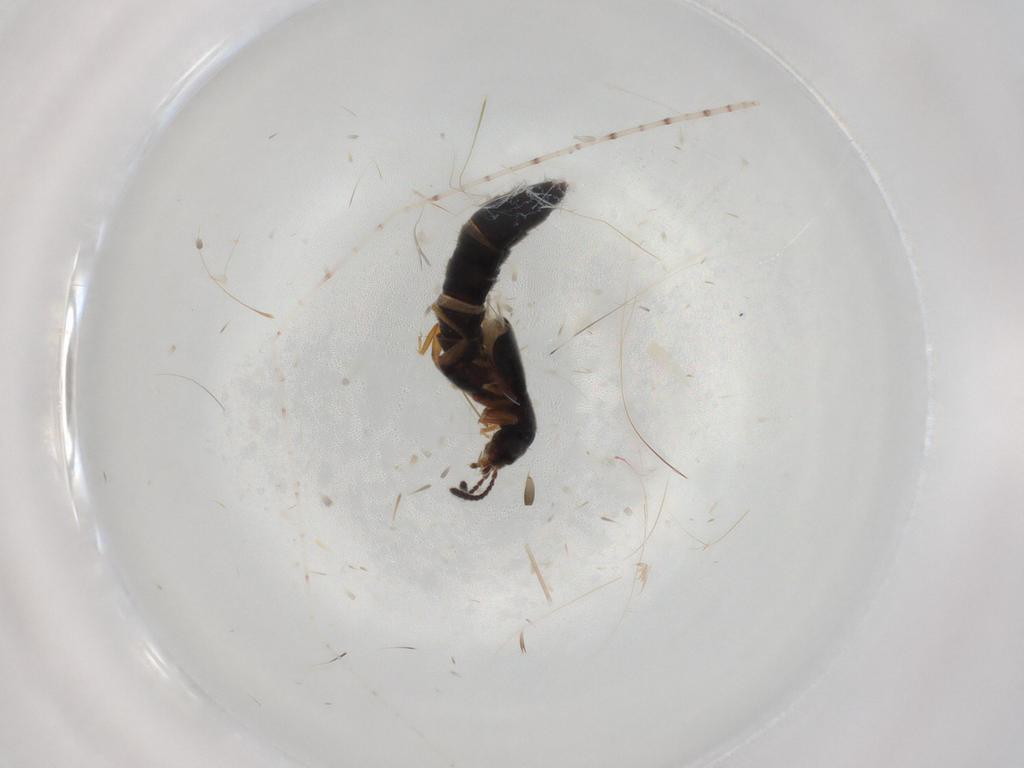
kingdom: Animalia
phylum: Arthropoda
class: Insecta
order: Coleoptera
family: Staphylinidae
